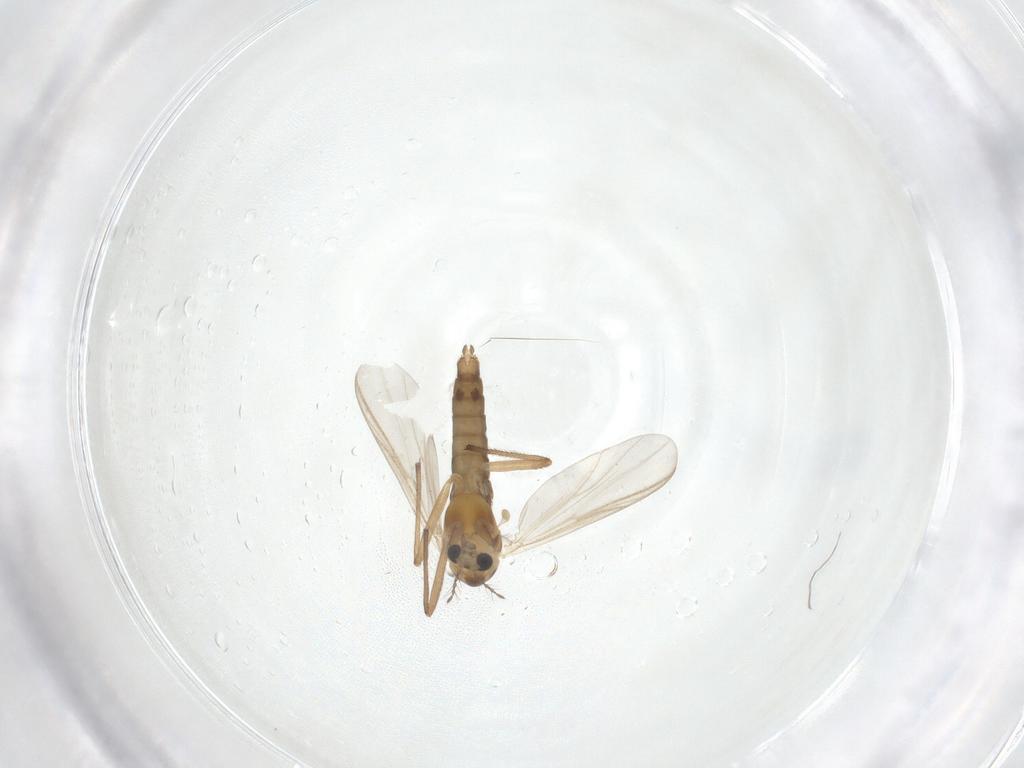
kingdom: Animalia
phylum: Arthropoda
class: Insecta
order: Diptera
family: Chironomidae
